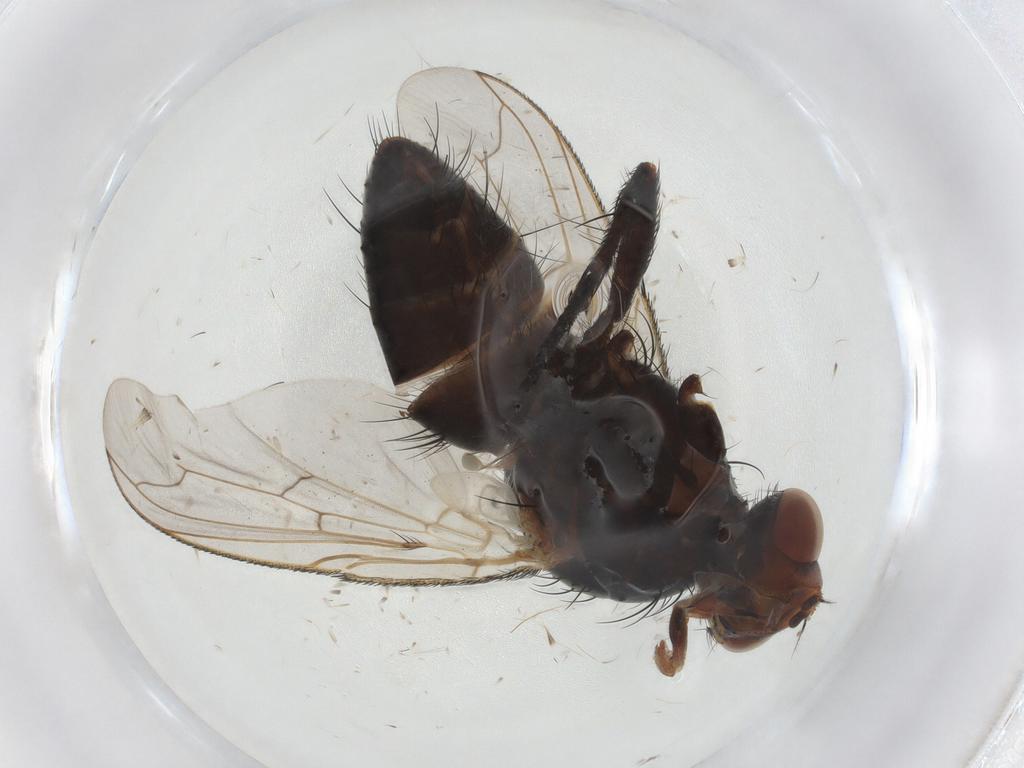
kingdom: Animalia
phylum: Arthropoda
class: Insecta
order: Diptera
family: Tachinidae
